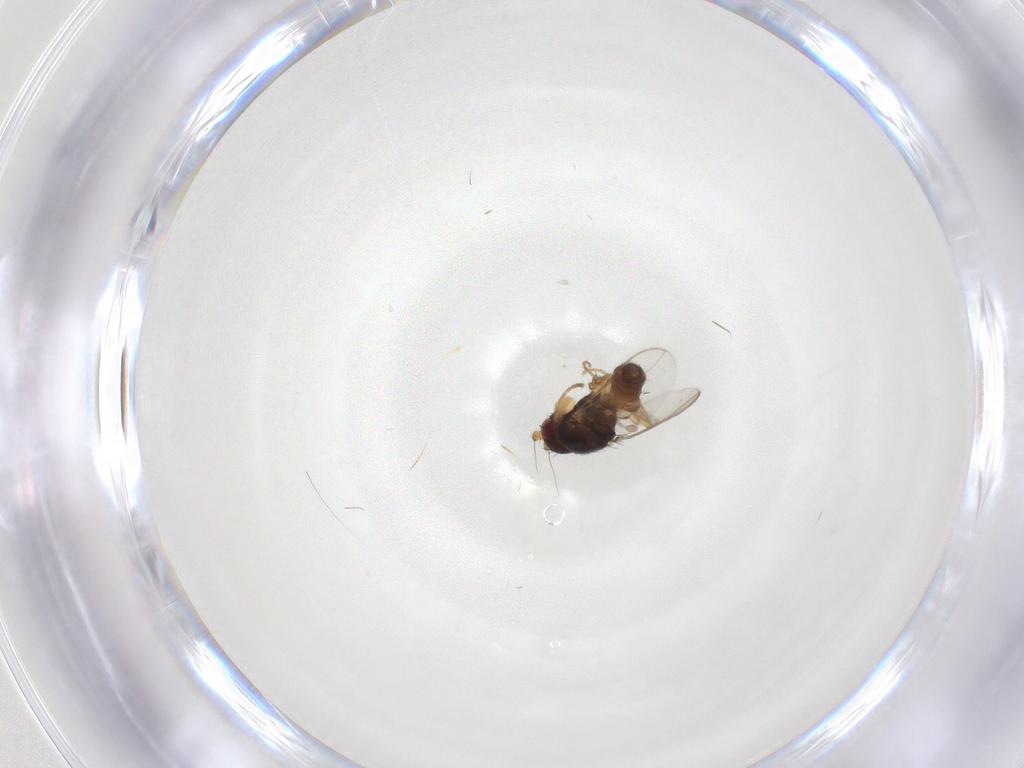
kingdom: Animalia
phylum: Arthropoda
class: Insecta
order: Diptera
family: Sphaeroceridae
